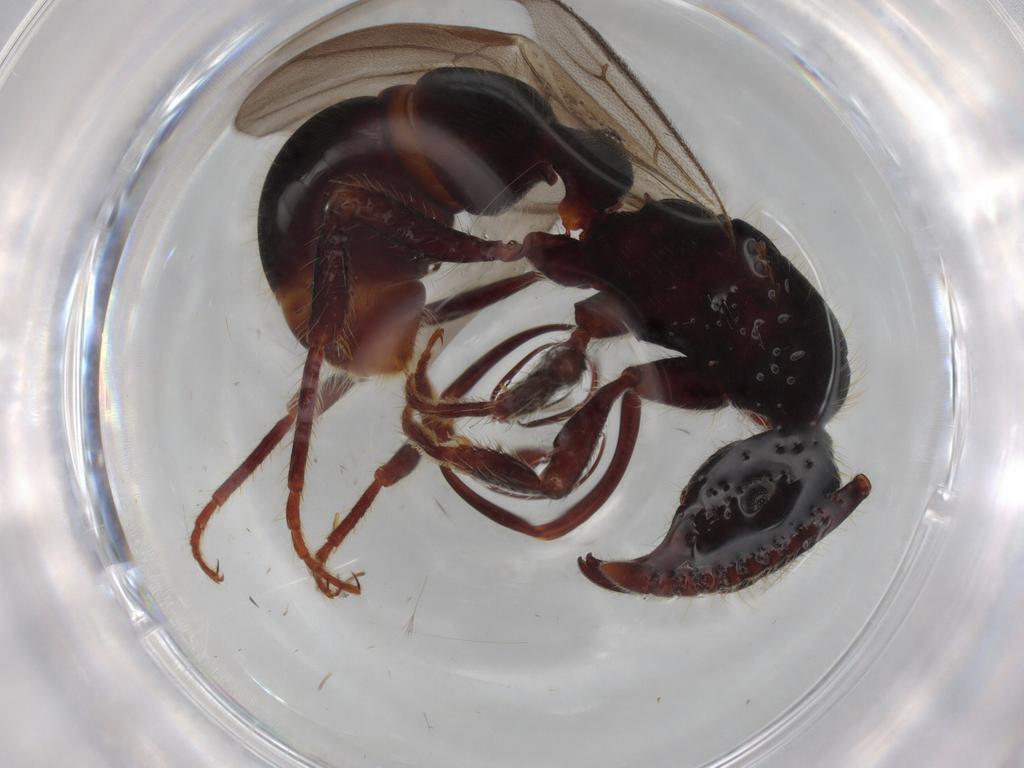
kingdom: Animalia
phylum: Arthropoda
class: Insecta
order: Hymenoptera
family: Formicidae
